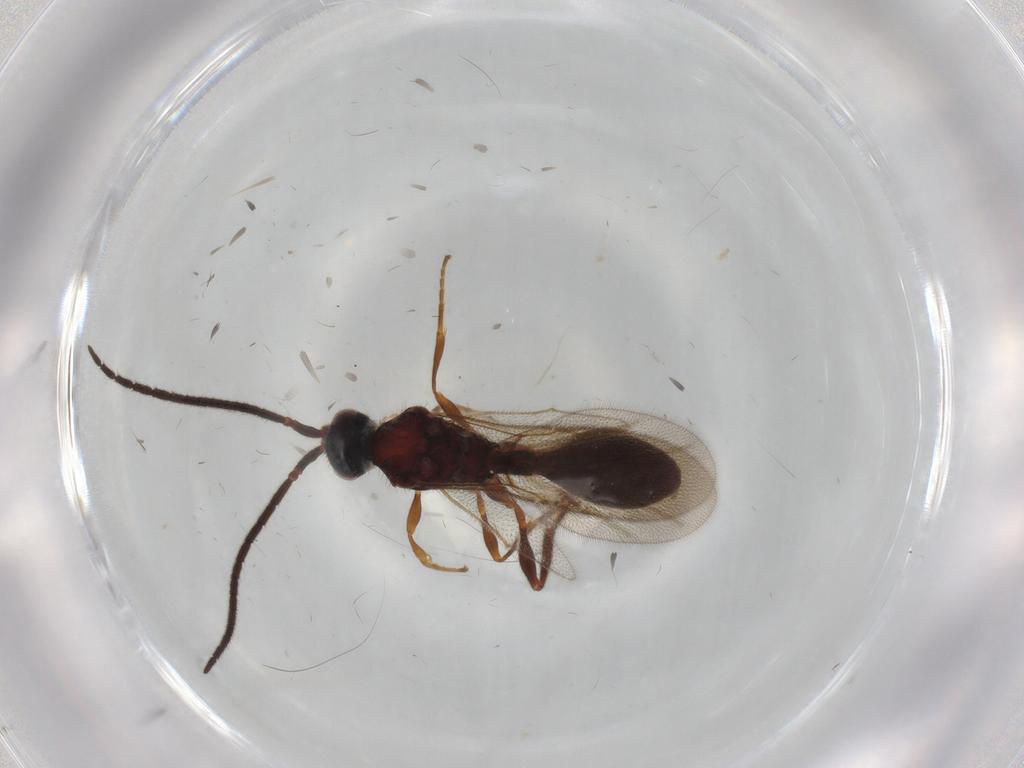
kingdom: Animalia
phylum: Arthropoda
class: Insecta
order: Hymenoptera
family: Diapriidae
